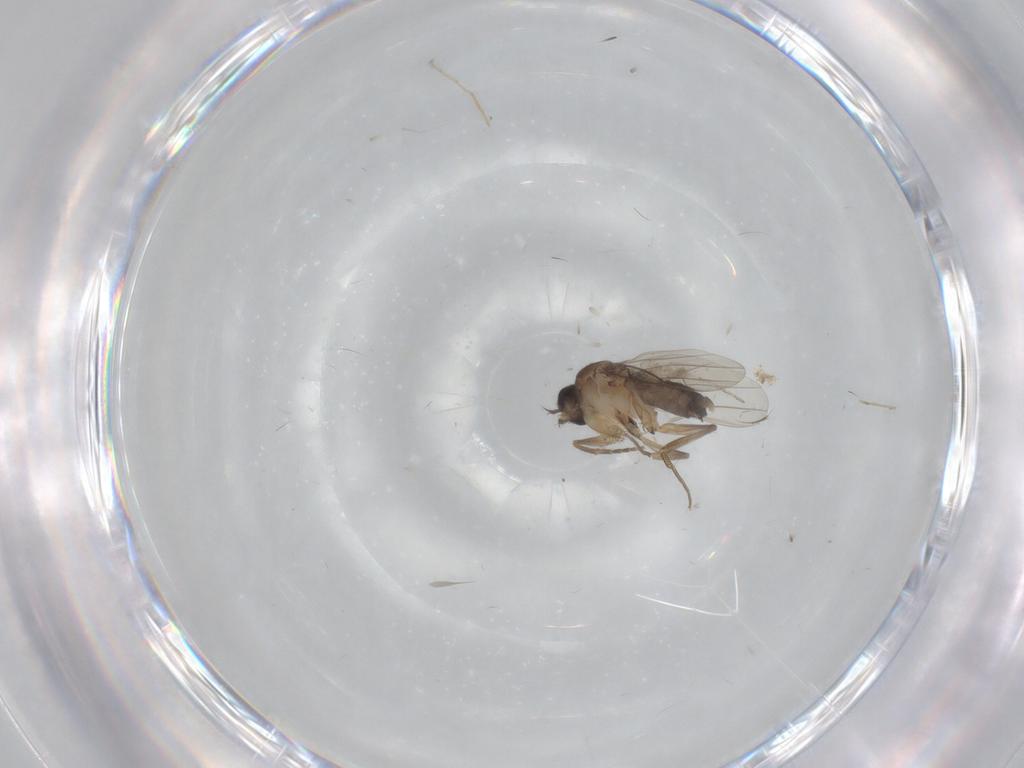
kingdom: Animalia
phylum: Arthropoda
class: Insecta
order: Diptera
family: Phoridae
